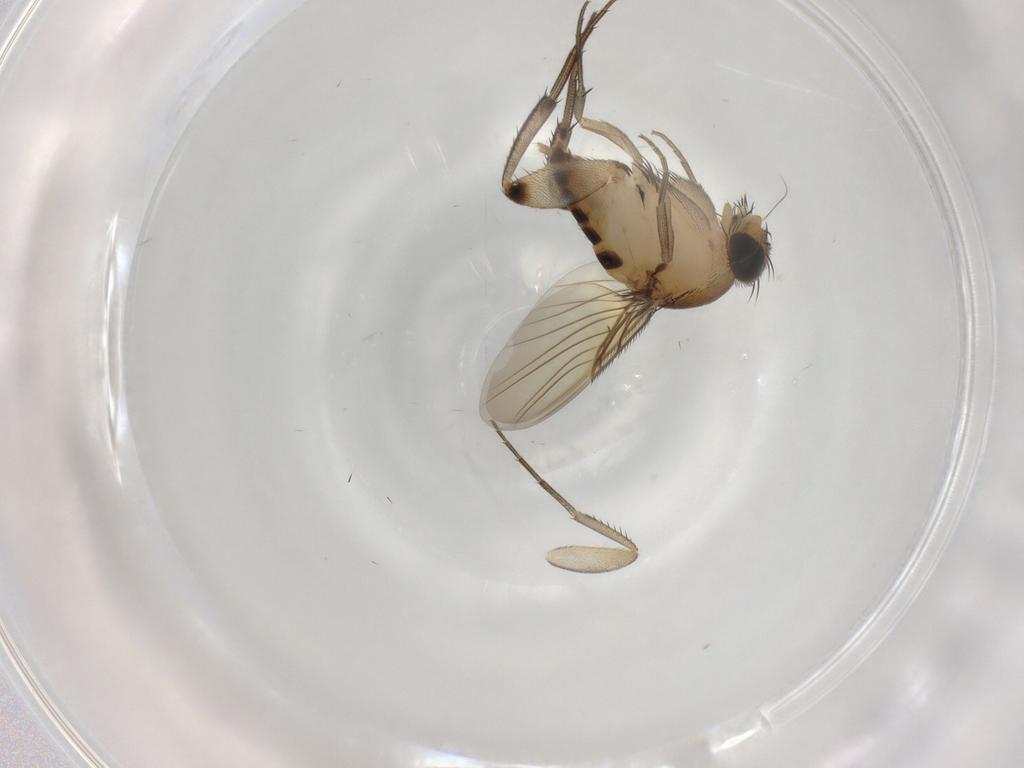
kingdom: Animalia
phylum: Arthropoda
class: Insecta
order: Diptera
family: Phoridae
